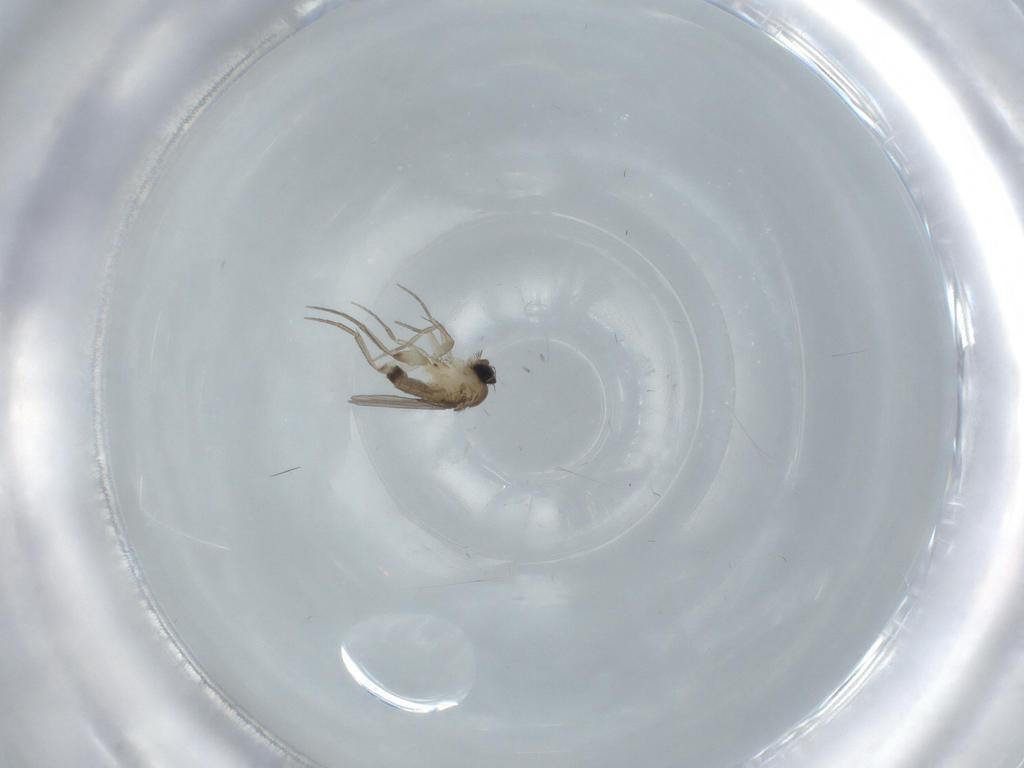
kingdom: Animalia
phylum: Arthropoda
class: Insecta
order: Diptera
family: Phoridae
